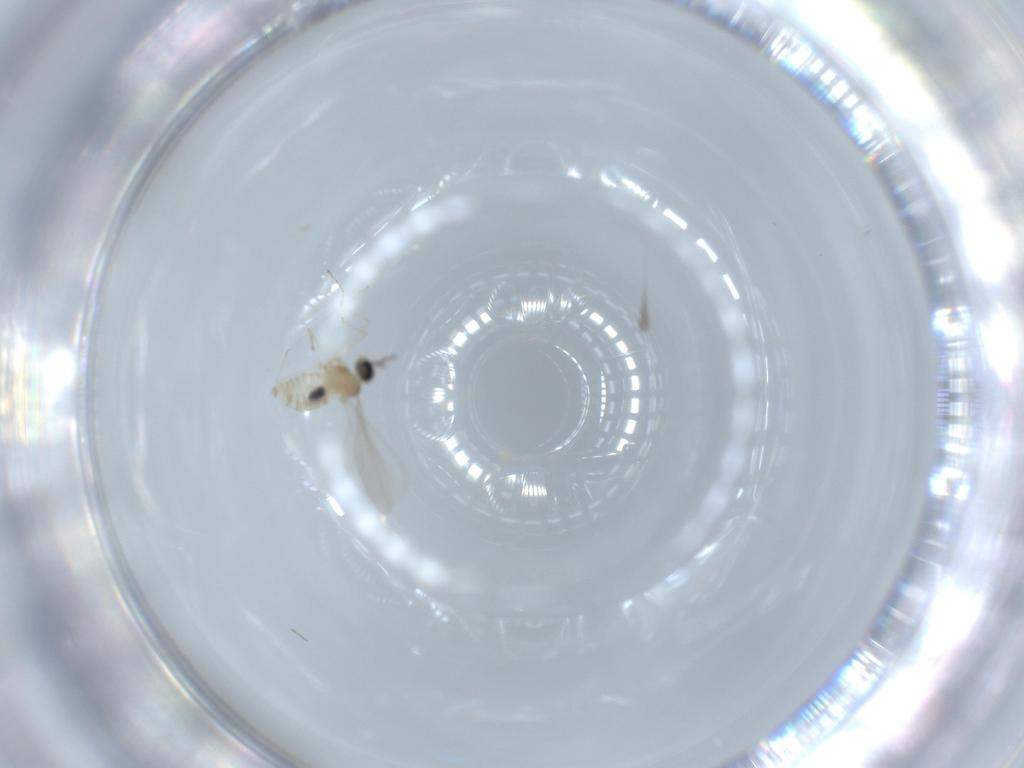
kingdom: Animalia
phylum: Arthropoda
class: Insecta
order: Diptera
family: Cecidomyiidae
